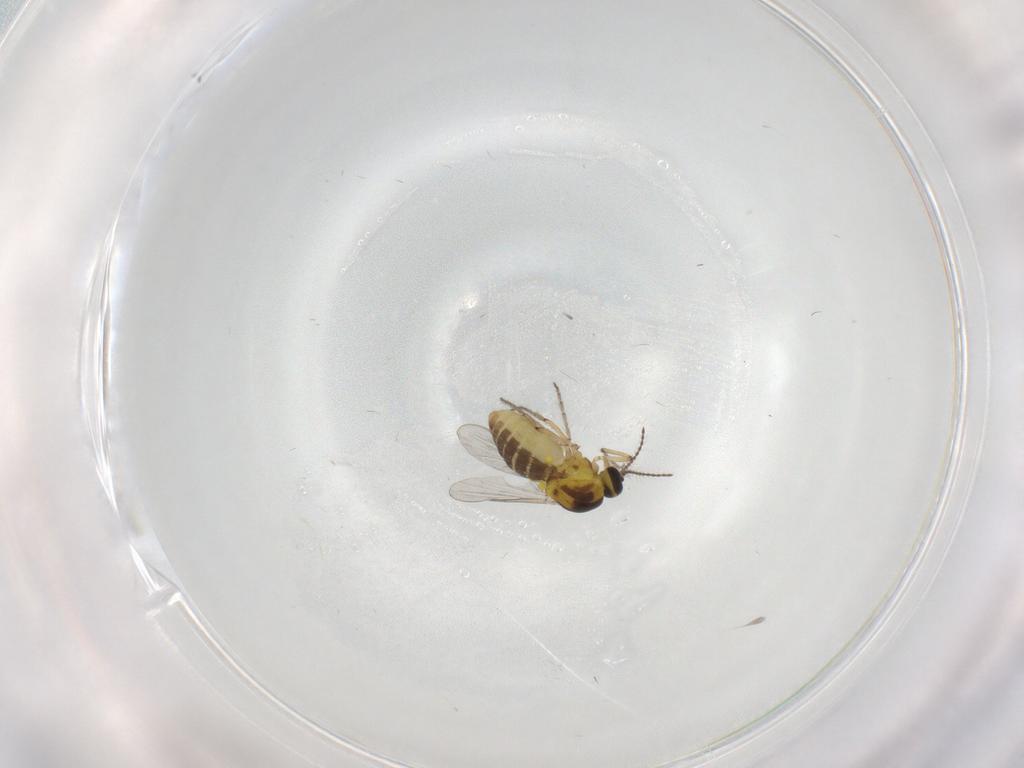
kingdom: Animalia
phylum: Arthropoda
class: Insecta
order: Diptera
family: Ceratopogonidae
